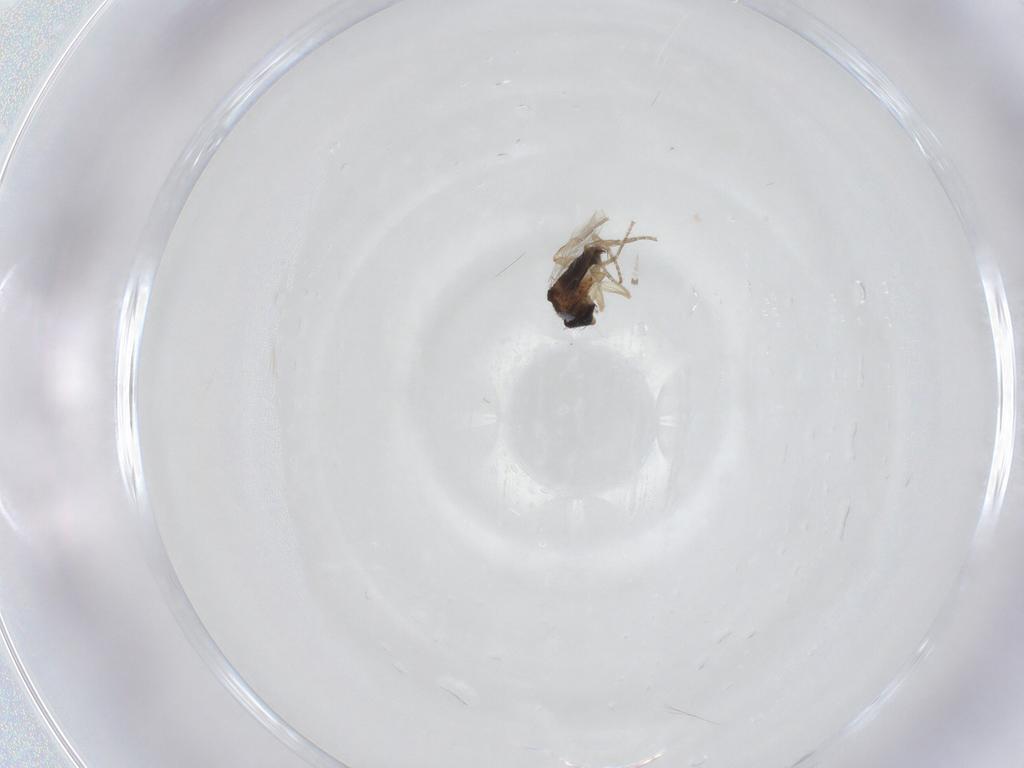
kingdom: Animalia
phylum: Arthropoda
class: Insecta
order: Diptera
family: Phoridae
